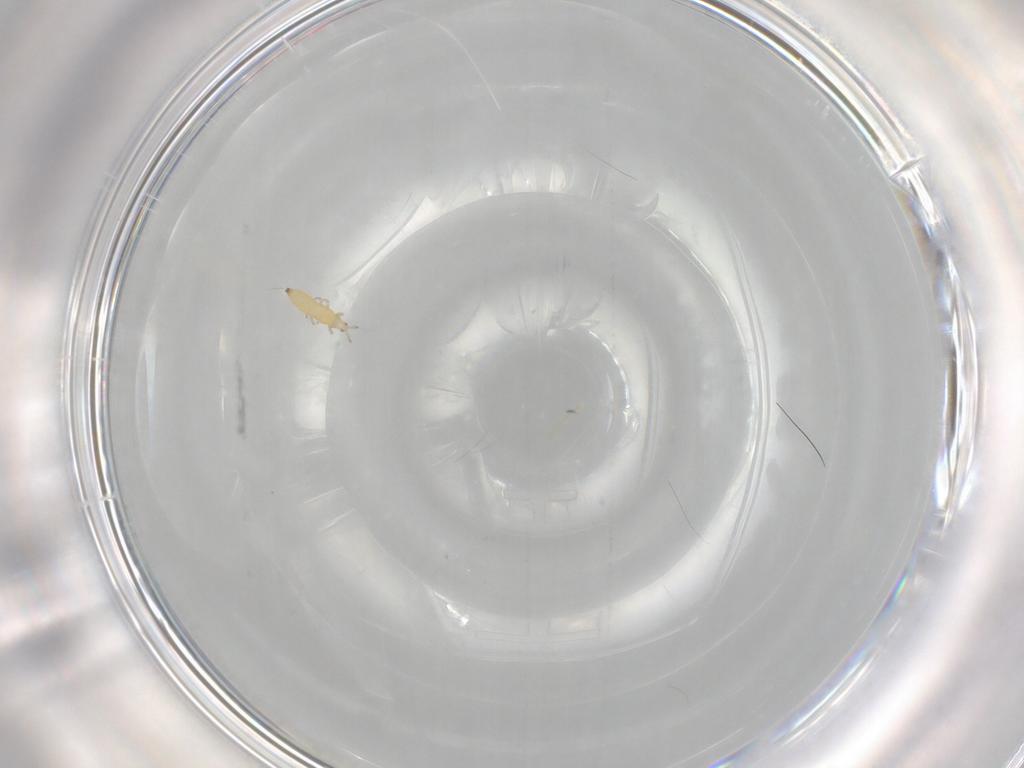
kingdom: Animalia
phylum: Arthropoda
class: Insecta
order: Thysanoptera
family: Thripidae
